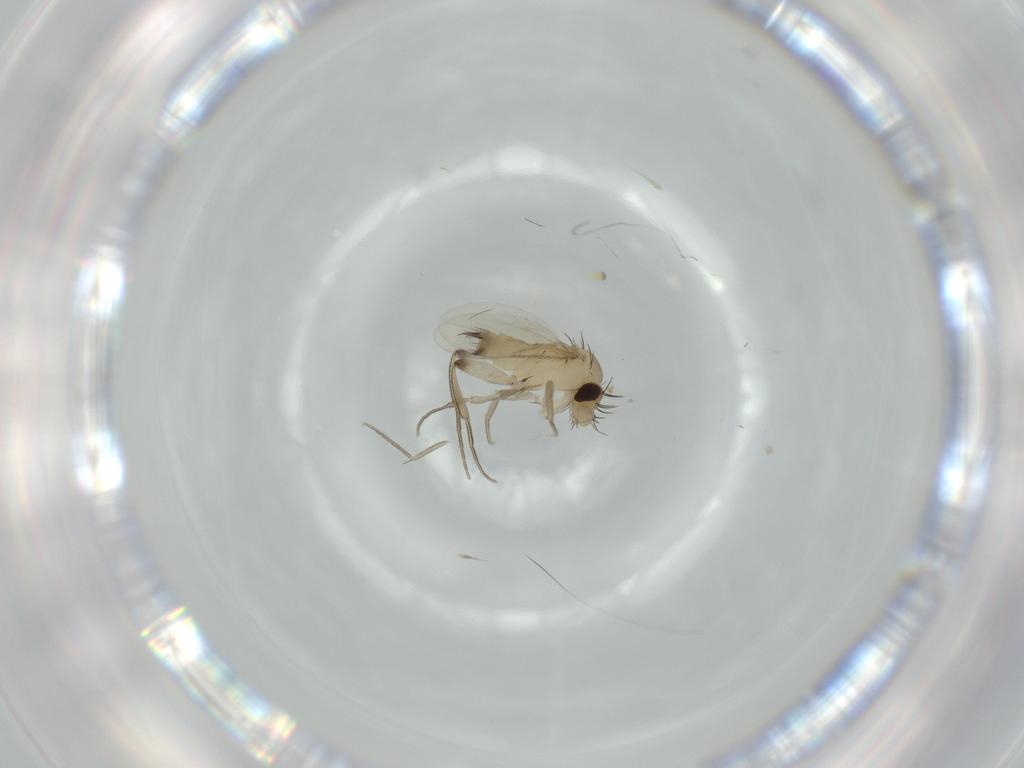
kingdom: Animalia
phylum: Arthropoda
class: Insecta
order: Diptera
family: Phoridae
